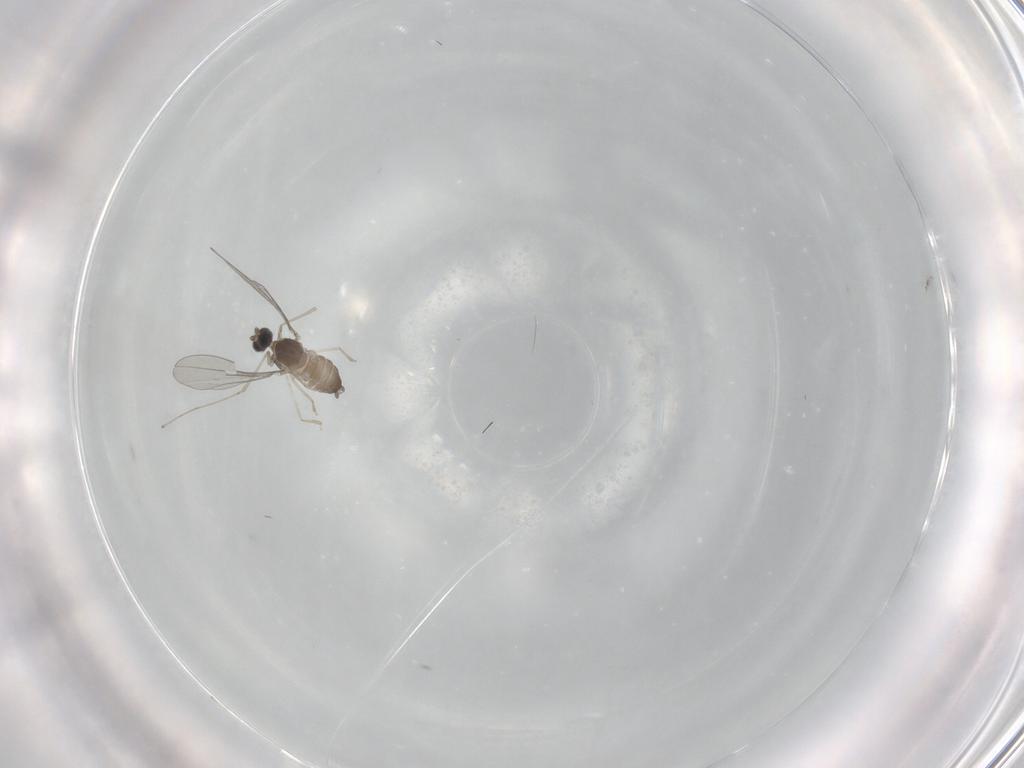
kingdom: Animalia
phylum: Arthropoda
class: Insecta
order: Diptera
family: Cecidomyiidae
